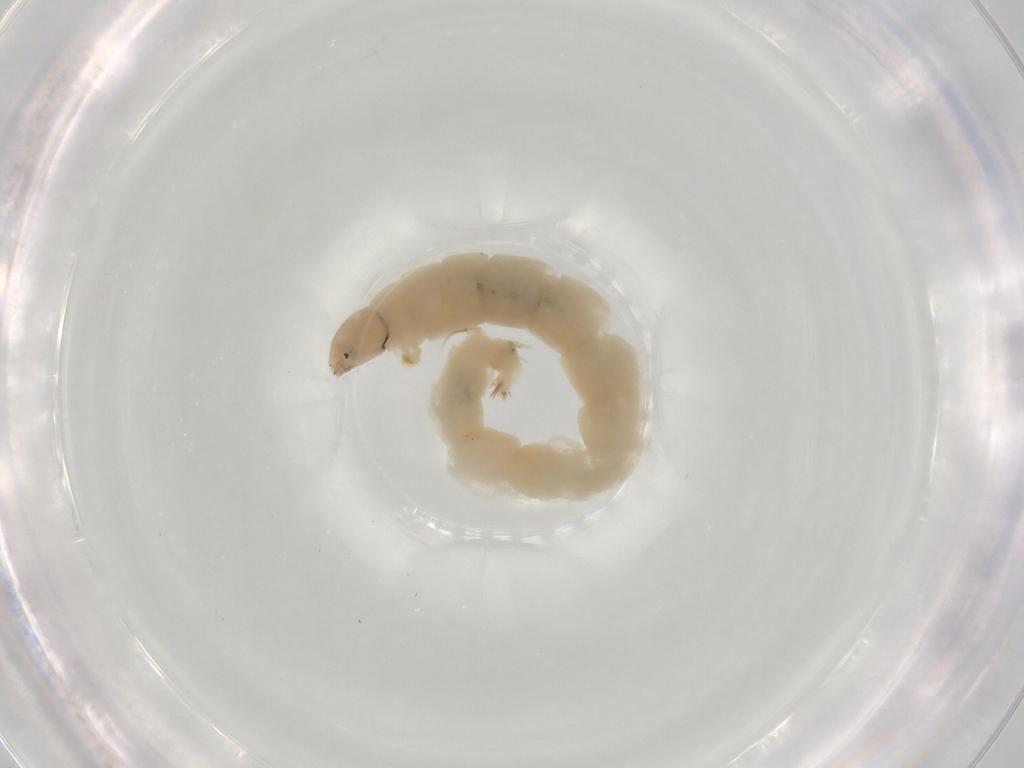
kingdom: Animalia
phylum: Arthropoda
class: Insecta
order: Diptera
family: Chironomidae
